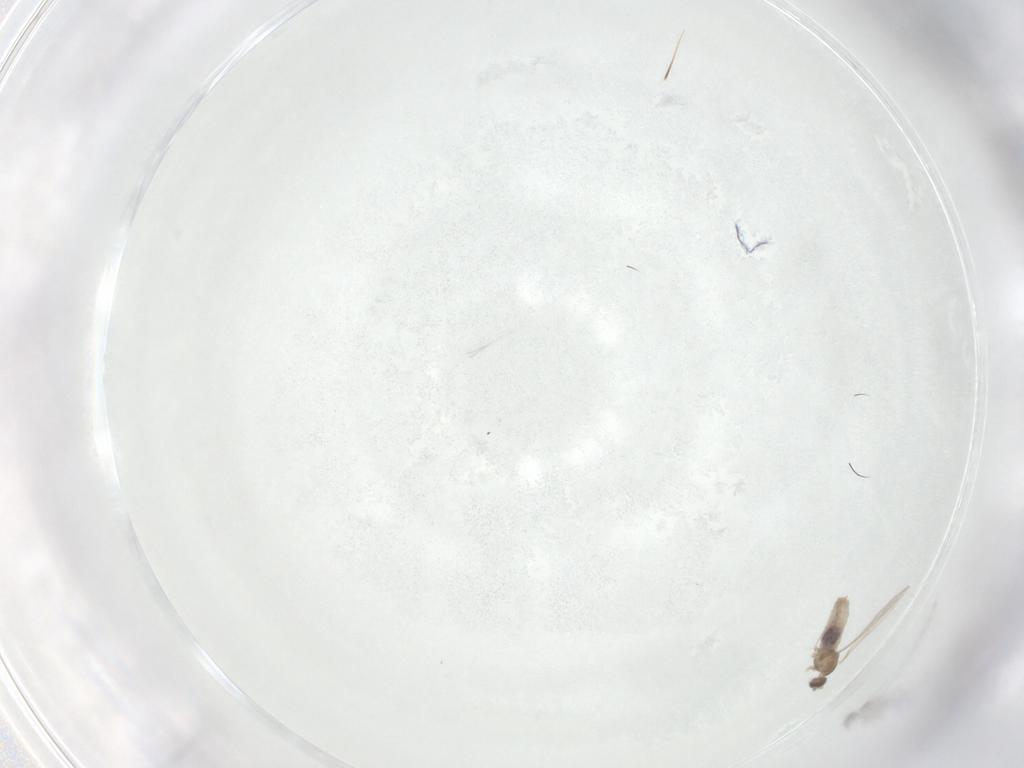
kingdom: Animalia
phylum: Arthropoda
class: Insecta
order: Diptera
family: Cecidomyiidae
